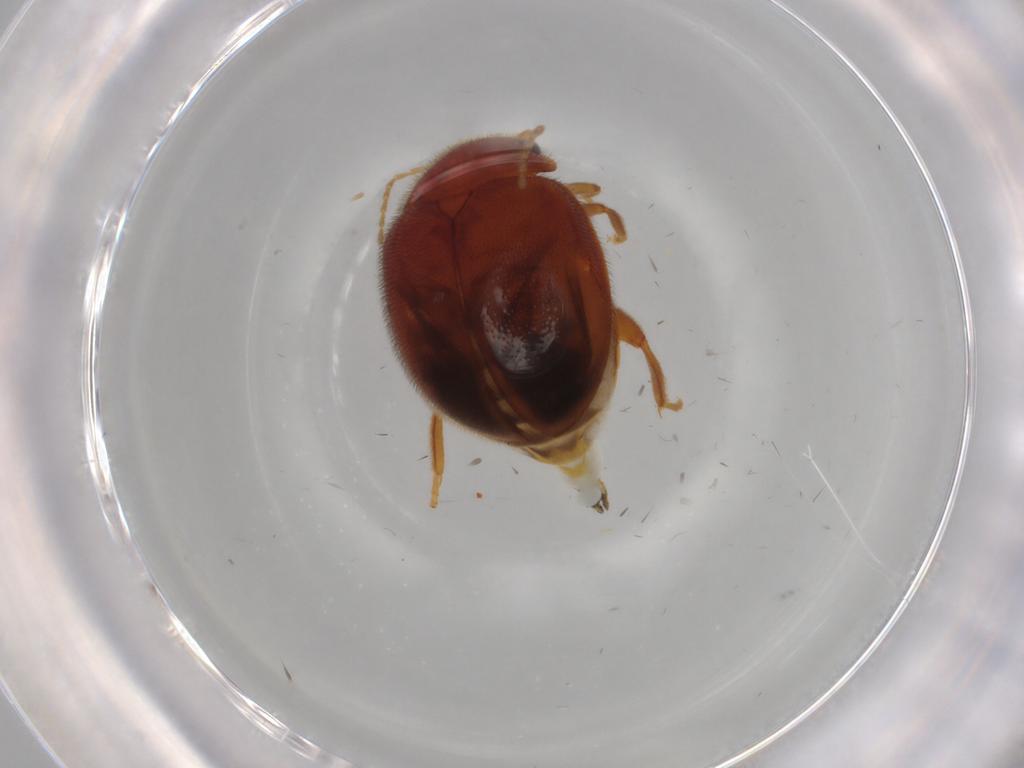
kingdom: Animalia
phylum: Arthropoda
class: Insecta
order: Coleoptera
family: Scirtidae
